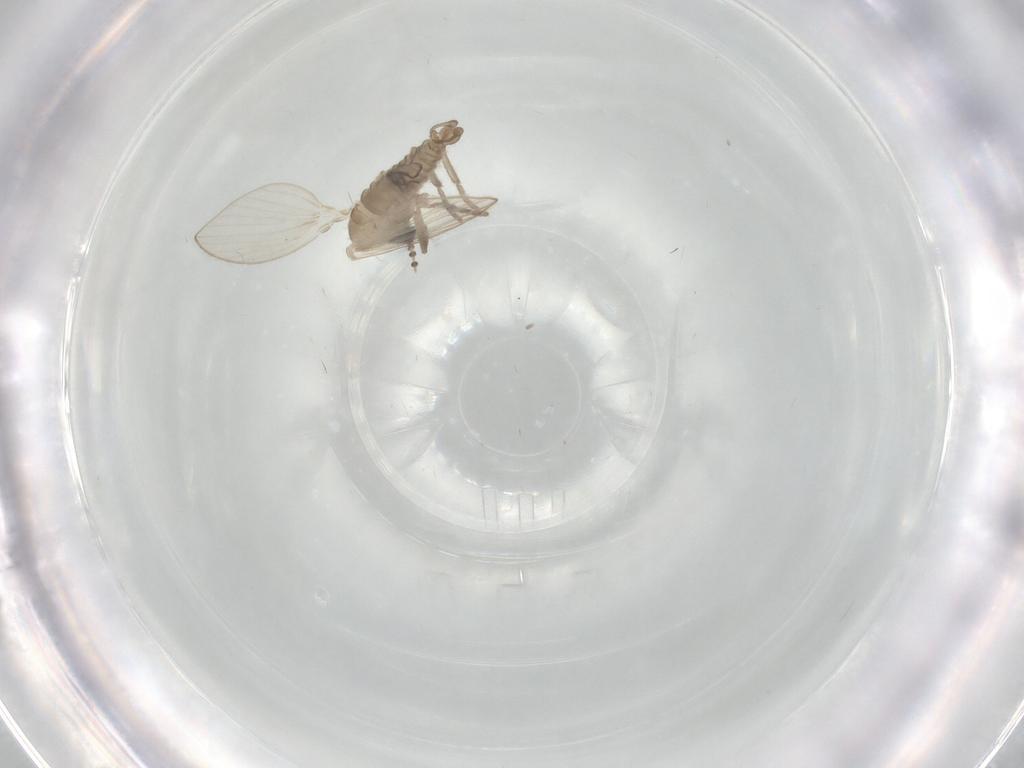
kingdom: Animalia
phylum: Arthropoda
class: Insecta
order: Diptera
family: Psychodidae
